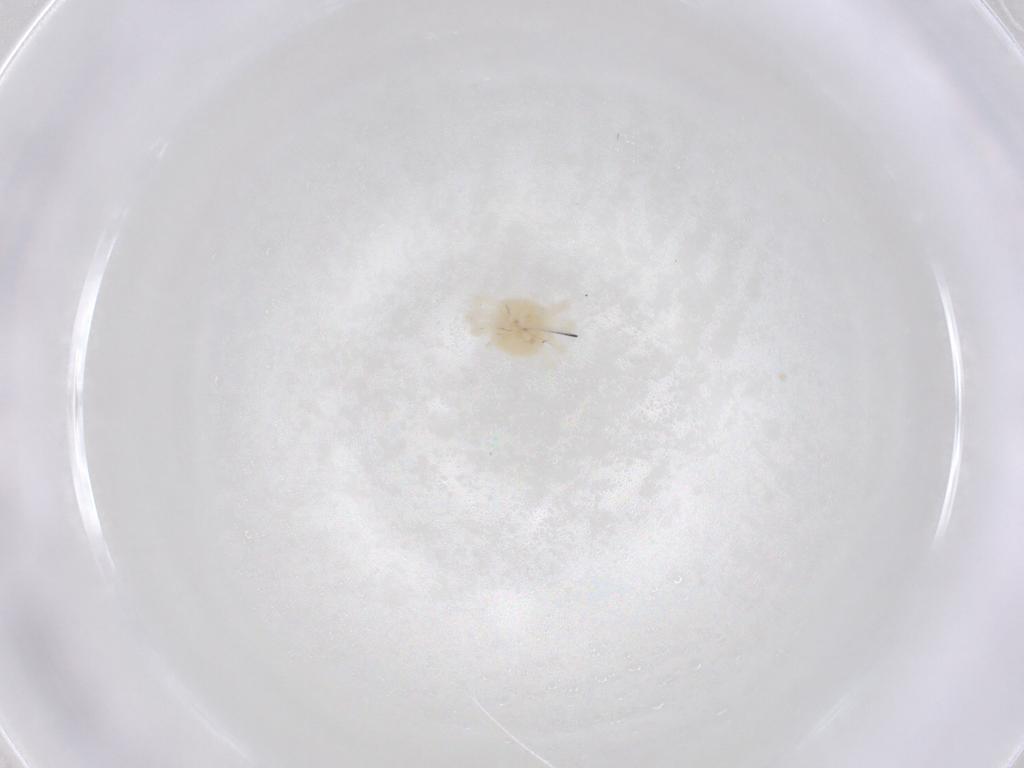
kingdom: Animalia
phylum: Arthropoda
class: Arachnida
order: Trombidiformes
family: Anystidae
